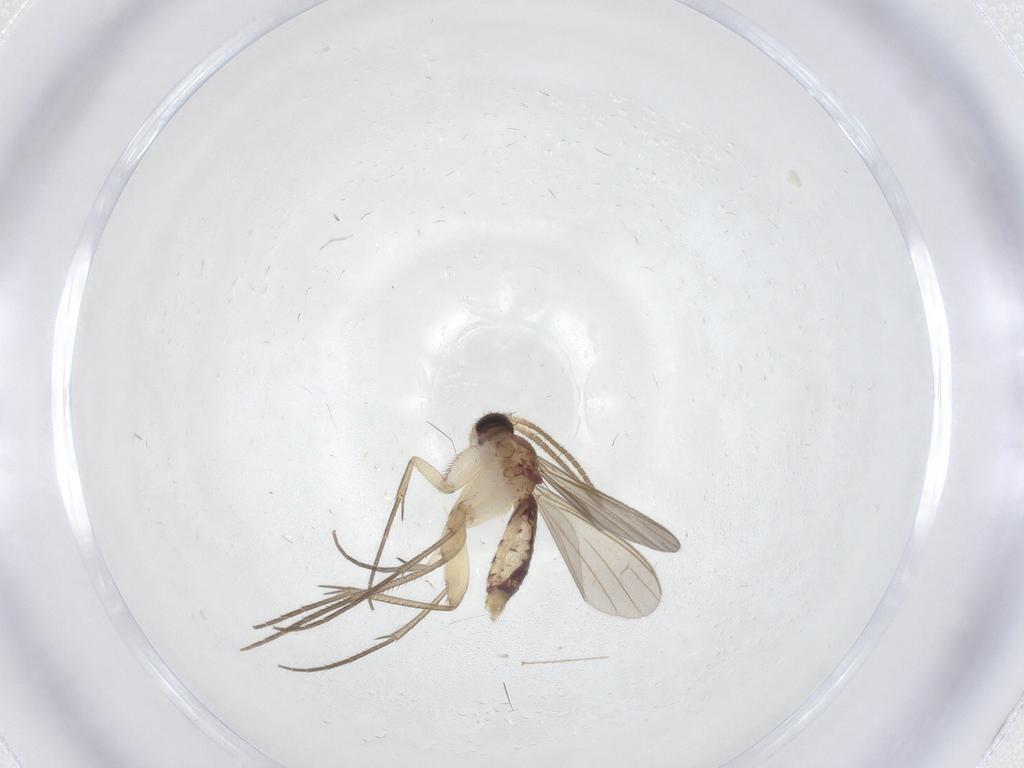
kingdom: Animalia
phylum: Arthropoda
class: Insecta
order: Diptera
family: Mycetophilidae
